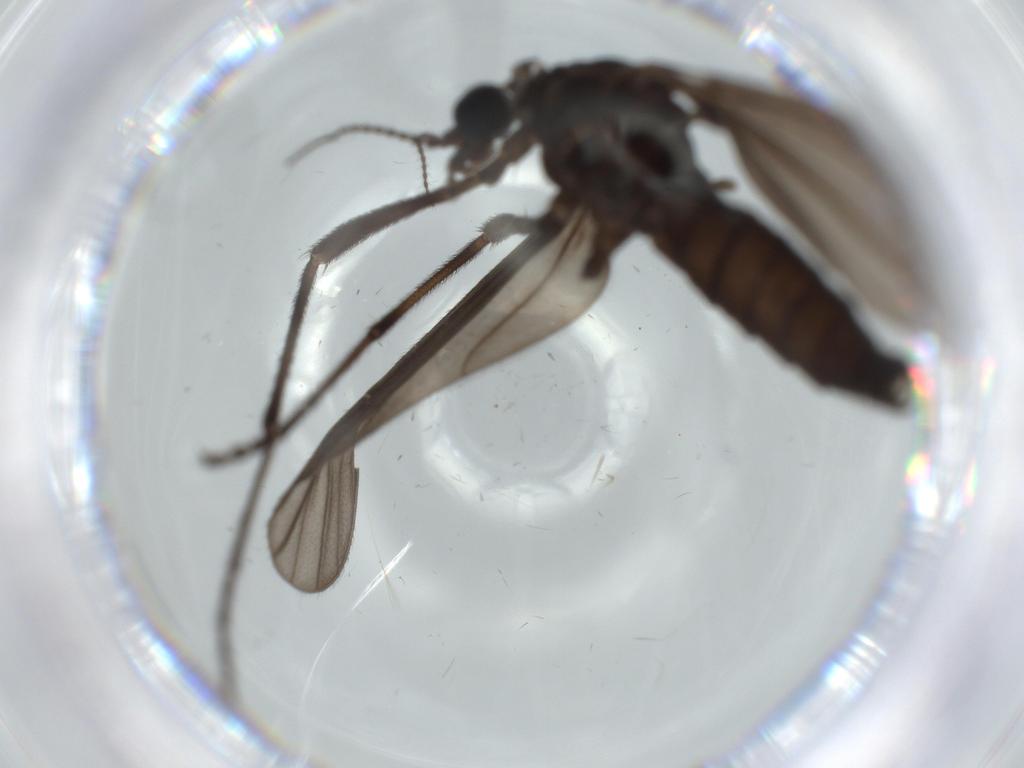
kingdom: Animalia
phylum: Arthropoda
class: Insecta
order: Diptera
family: Limoniidae
